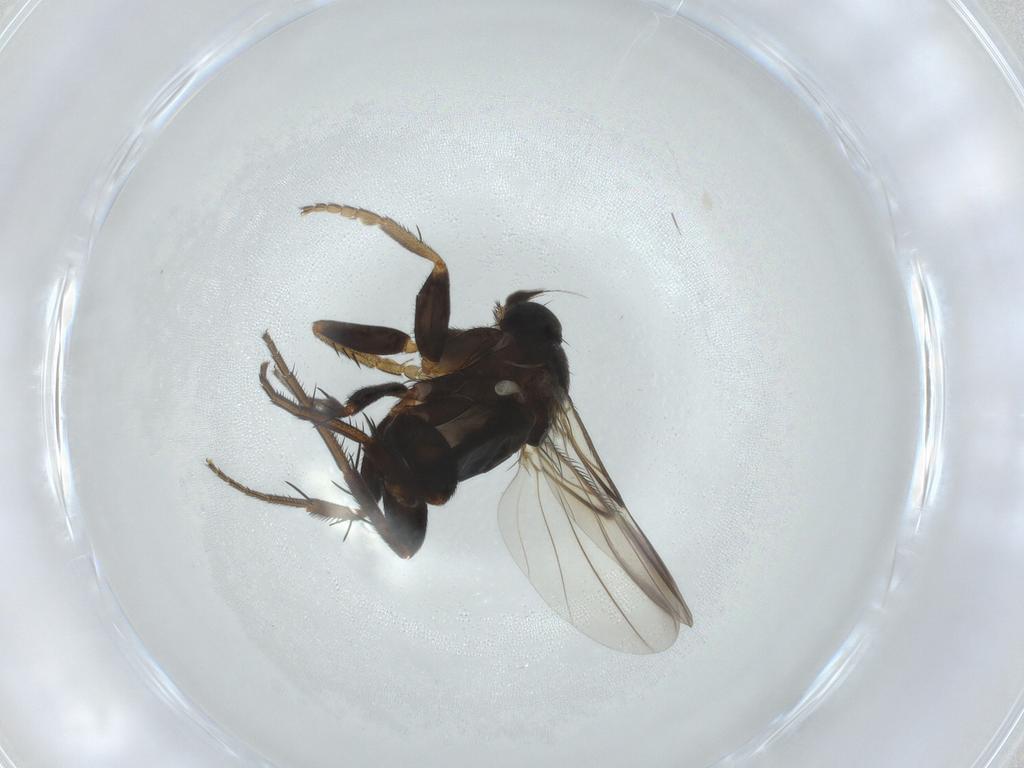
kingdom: Animalia
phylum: Arthropoda
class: Insecta
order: Diptera
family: Phoridae
